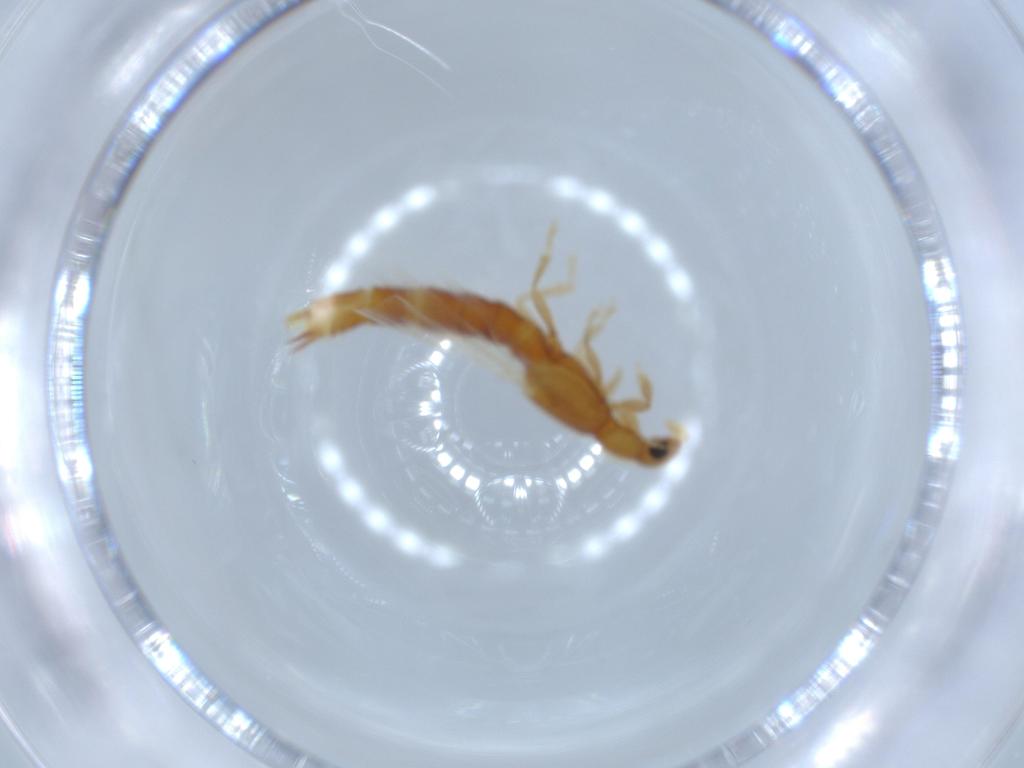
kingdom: Animalia
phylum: Arthropoda
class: Insecta
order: Coleoptera
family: Staphylinidae
